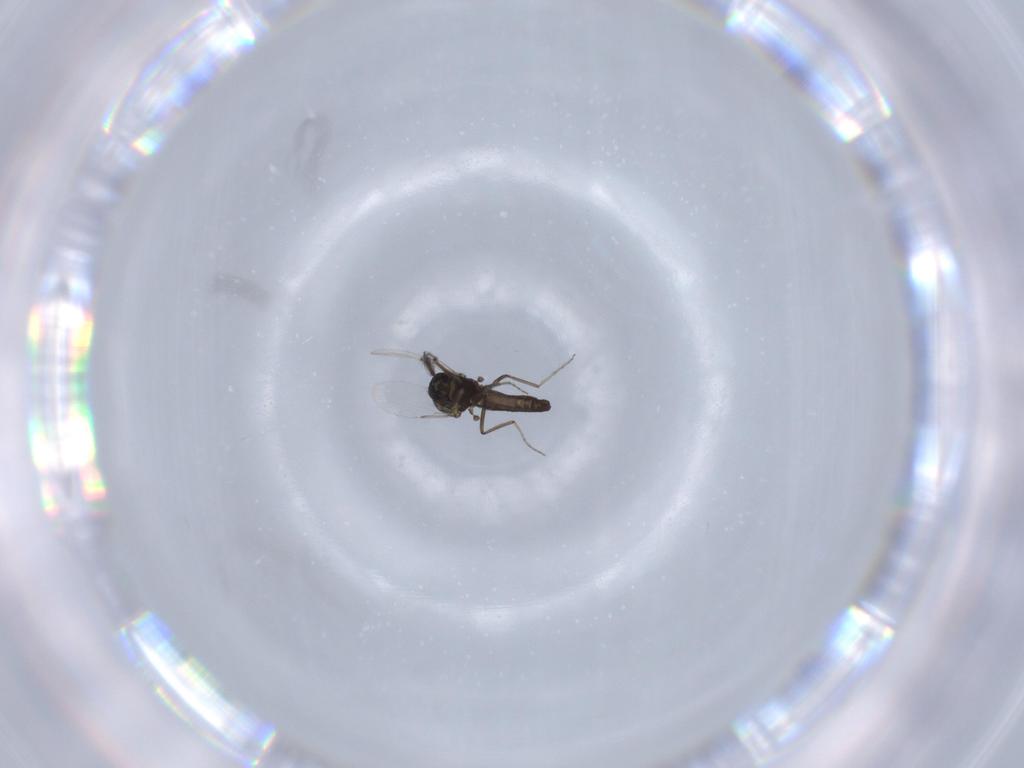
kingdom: Animalia
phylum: Arthropoda
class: Insecta
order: Diptera
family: Ceratopogonidae
